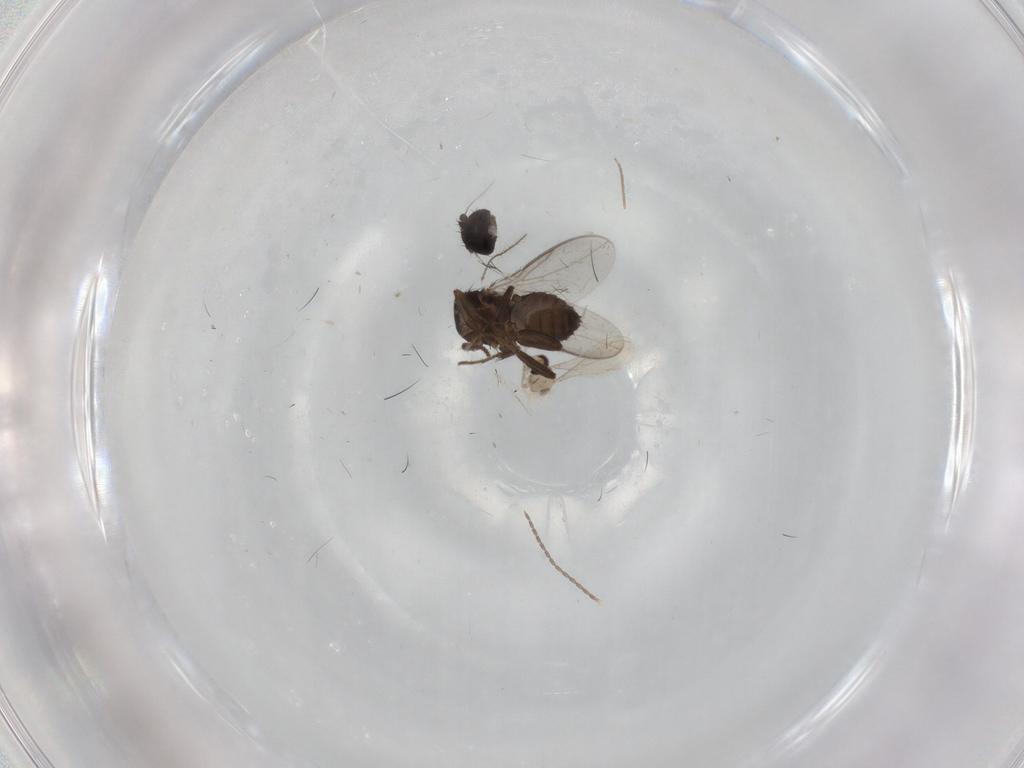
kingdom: Animalia
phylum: Arthropoda
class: Insecta
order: Diptera
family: Sphaeroceridae
